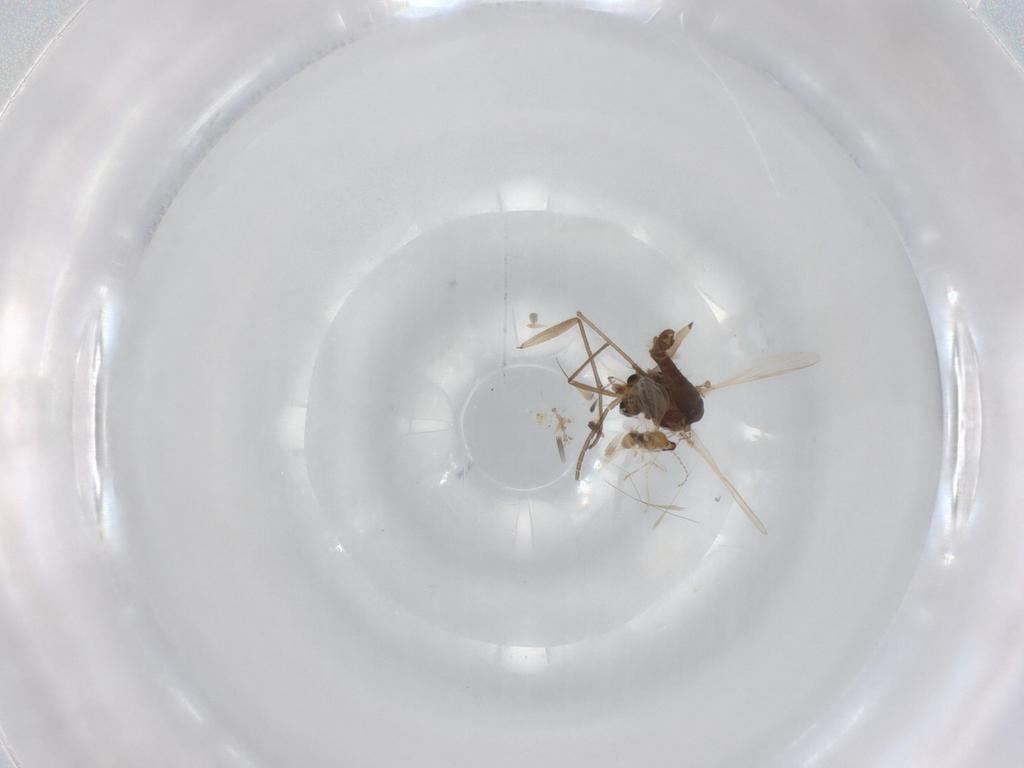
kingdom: Animalia
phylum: Arthropoda
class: Insecta
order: Diptera
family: Chironomidae
